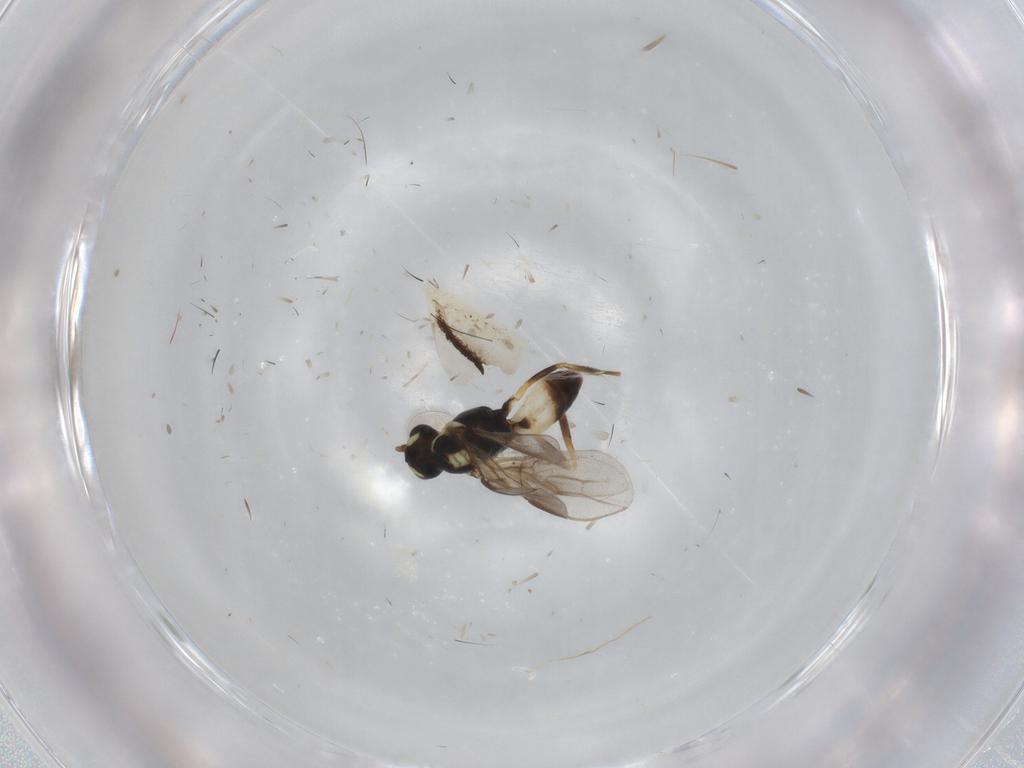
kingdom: Animalia
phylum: Arthropoda
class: Insecta
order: Hymenoptera
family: Braconidae
